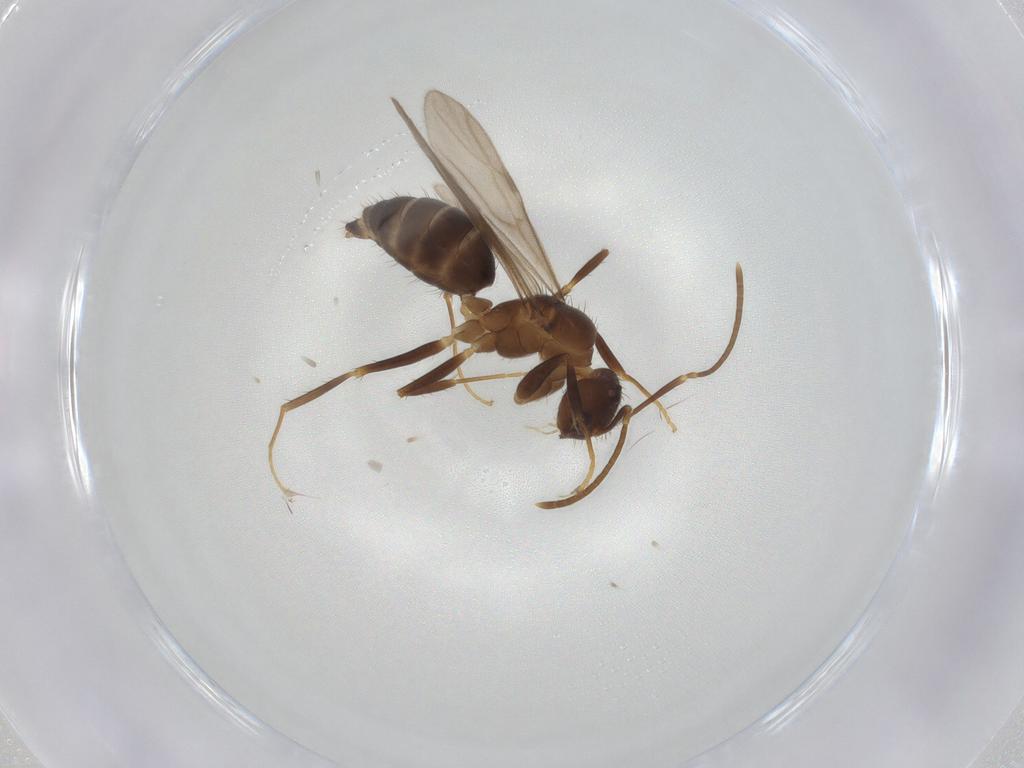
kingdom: Animalia
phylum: Arthropoda
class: Insecta
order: Hymenoptera
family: Formicidae
